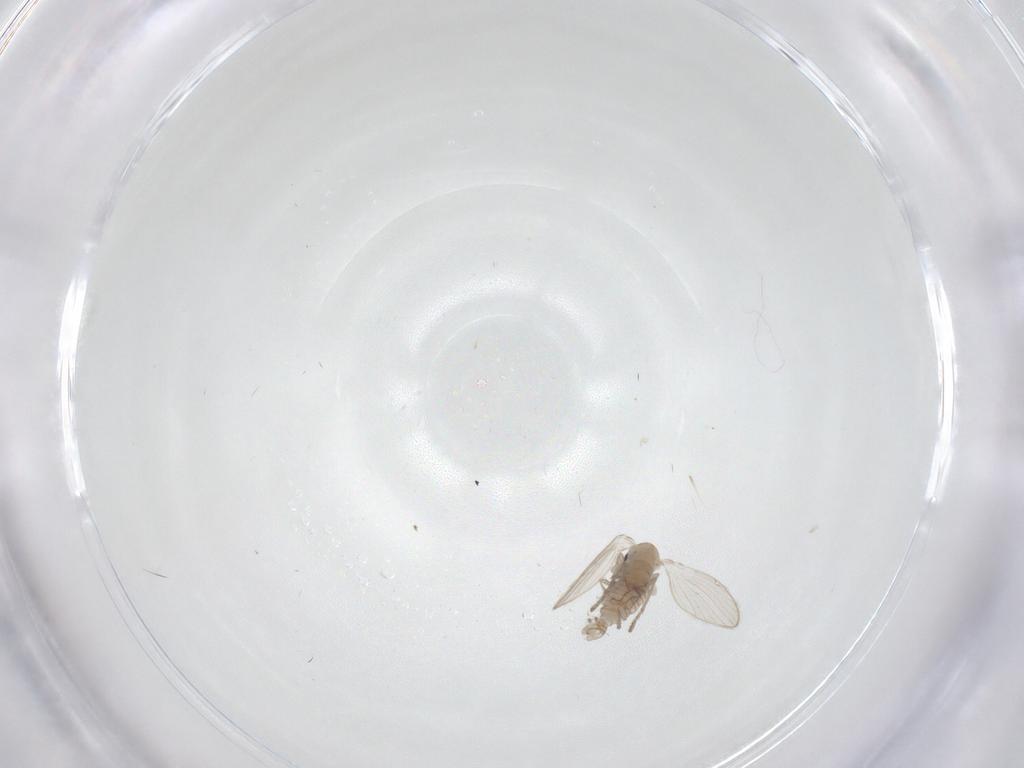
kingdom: Animalia
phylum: Arthropoda
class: Insecta
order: Diptera
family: Psychodidae
